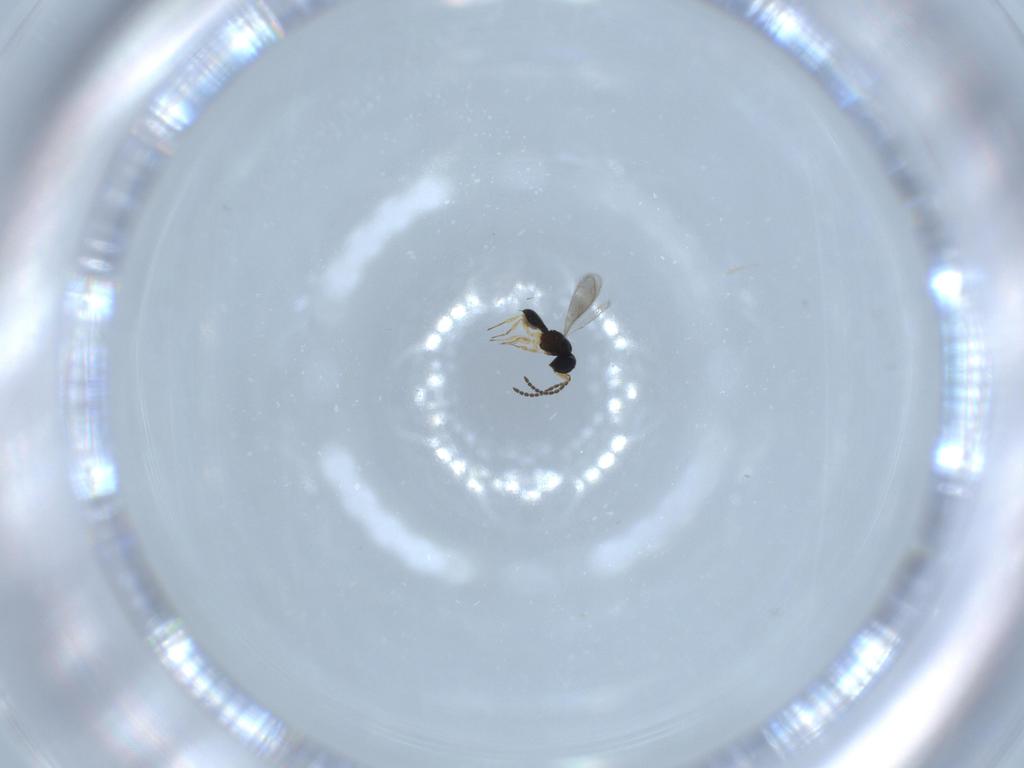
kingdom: Animalia
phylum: Arthropoda
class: Insecta
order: Hymenoptera
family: Scelionidae
